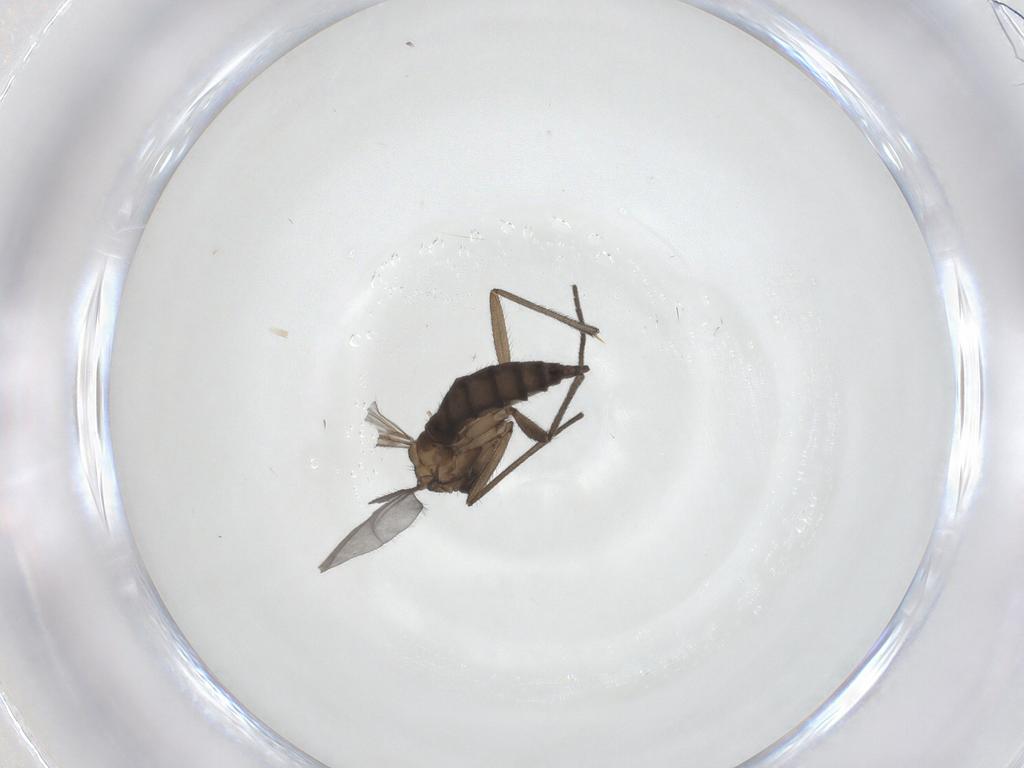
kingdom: Animalia
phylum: Arthropoda
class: Insecta
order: Diptera
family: Sciaridae
